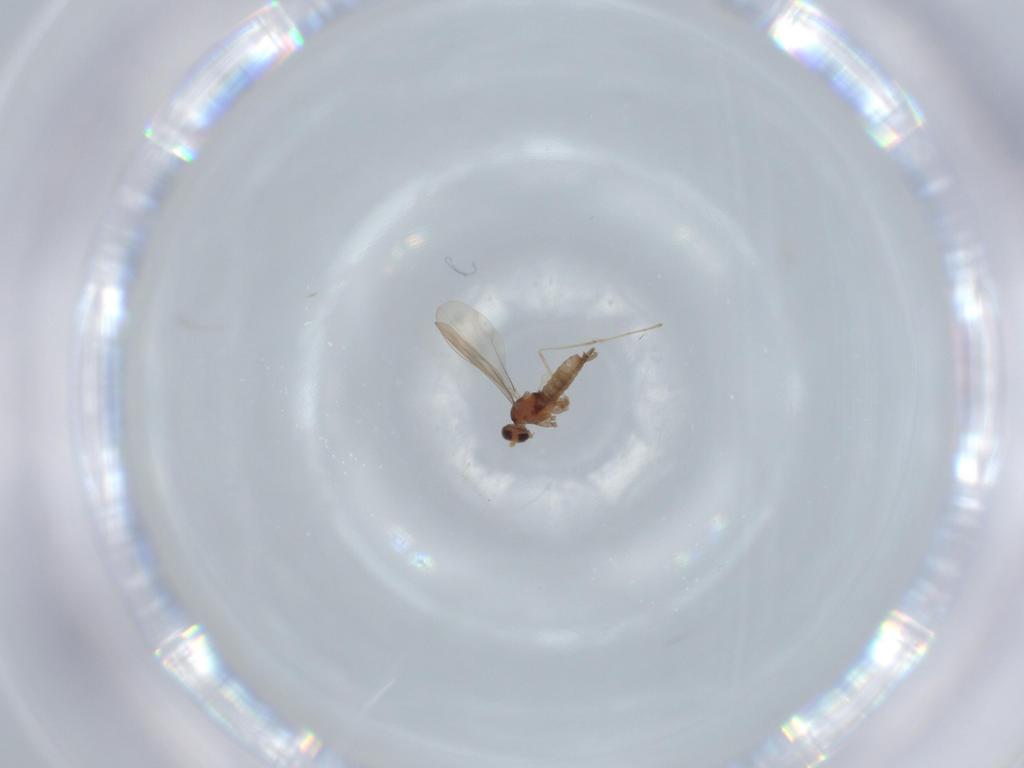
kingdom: Animalia
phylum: Arthropoda
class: Insecta
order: Diptera
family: Cecidomyiidae
